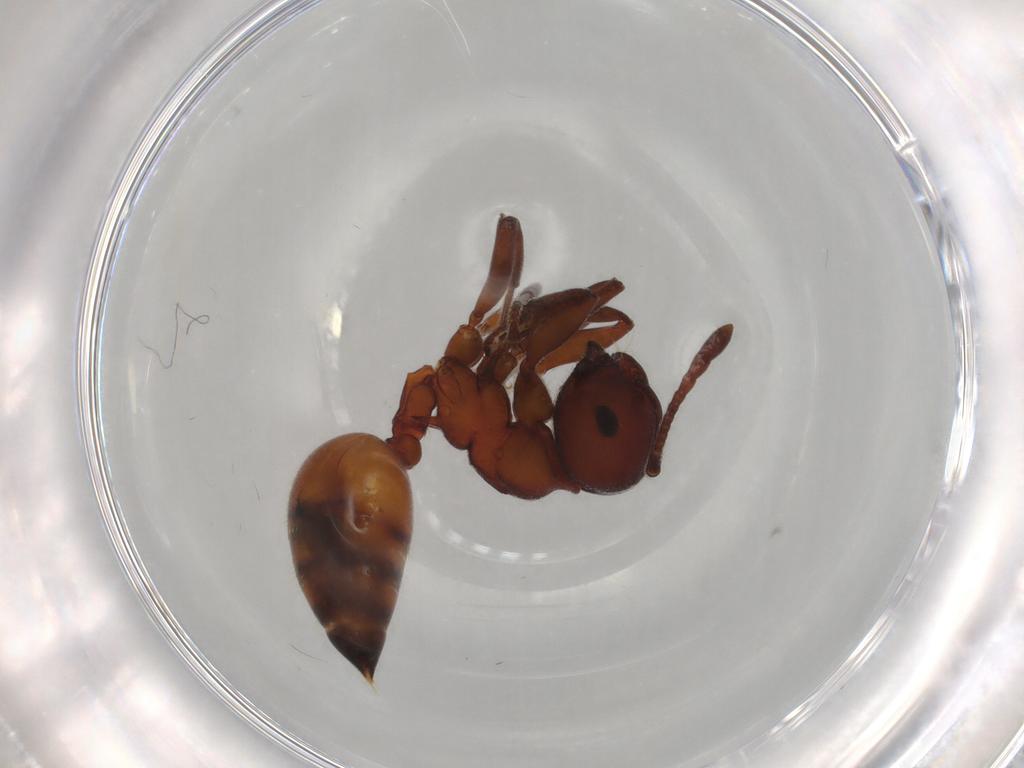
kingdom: Animalia
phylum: Arthropoda
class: Insecta
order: Hymenoptera
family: Formicidae
